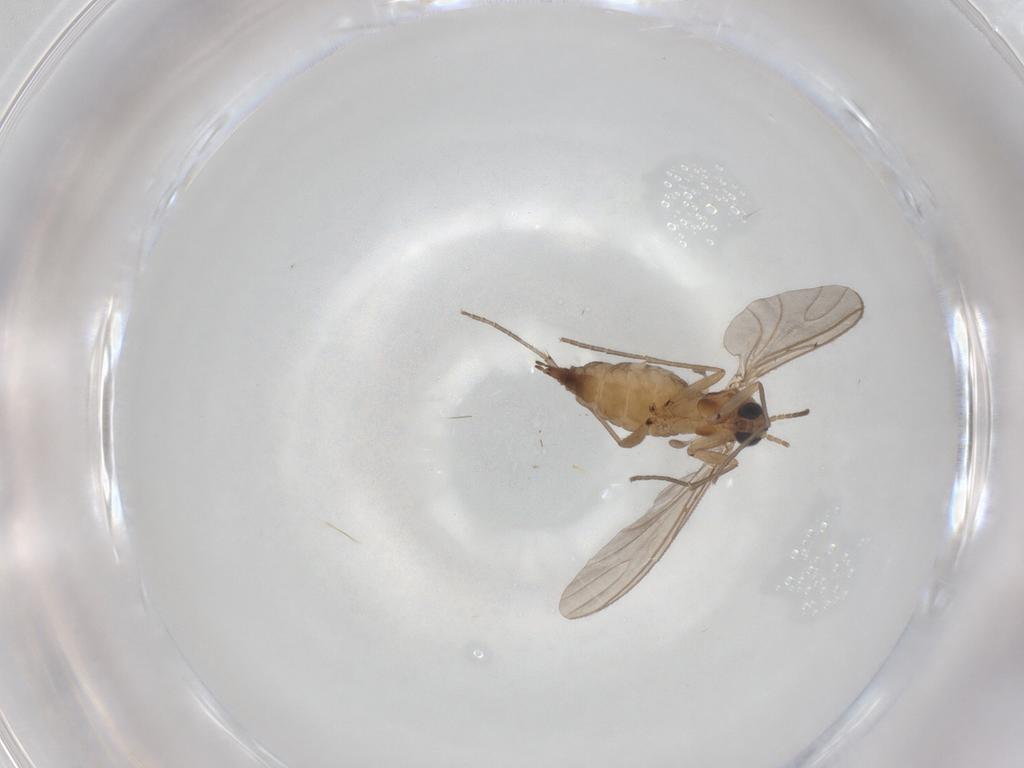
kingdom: Animalia
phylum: Arthropoda
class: Insecta
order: Diptera
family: Sciaridae
